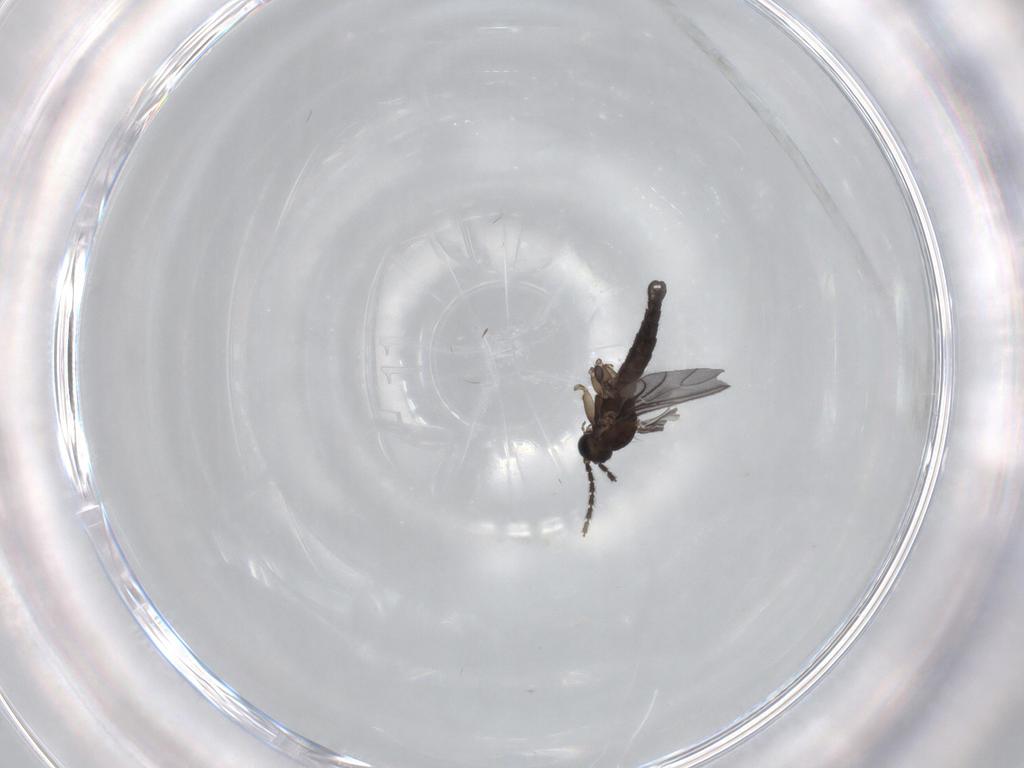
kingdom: Animalia
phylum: Arthropoda
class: Insecta
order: Diptera
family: Sciaridae
